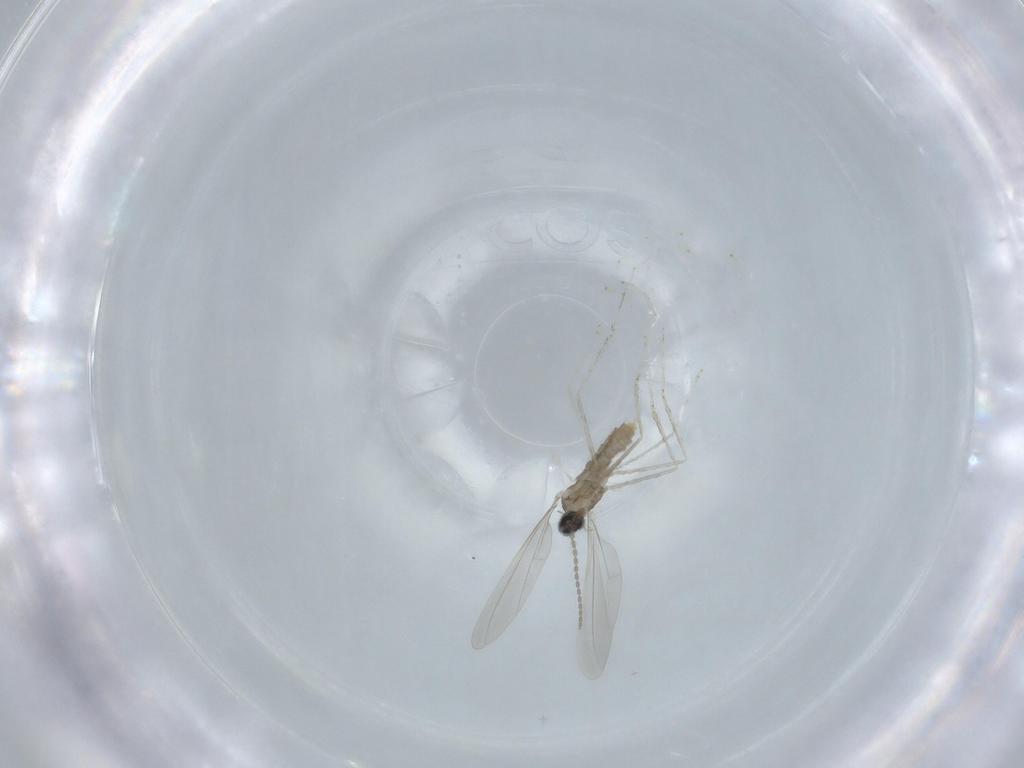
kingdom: Animalia
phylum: Arthropoda
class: Insecta
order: Diptera
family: Cecidomyiidae
